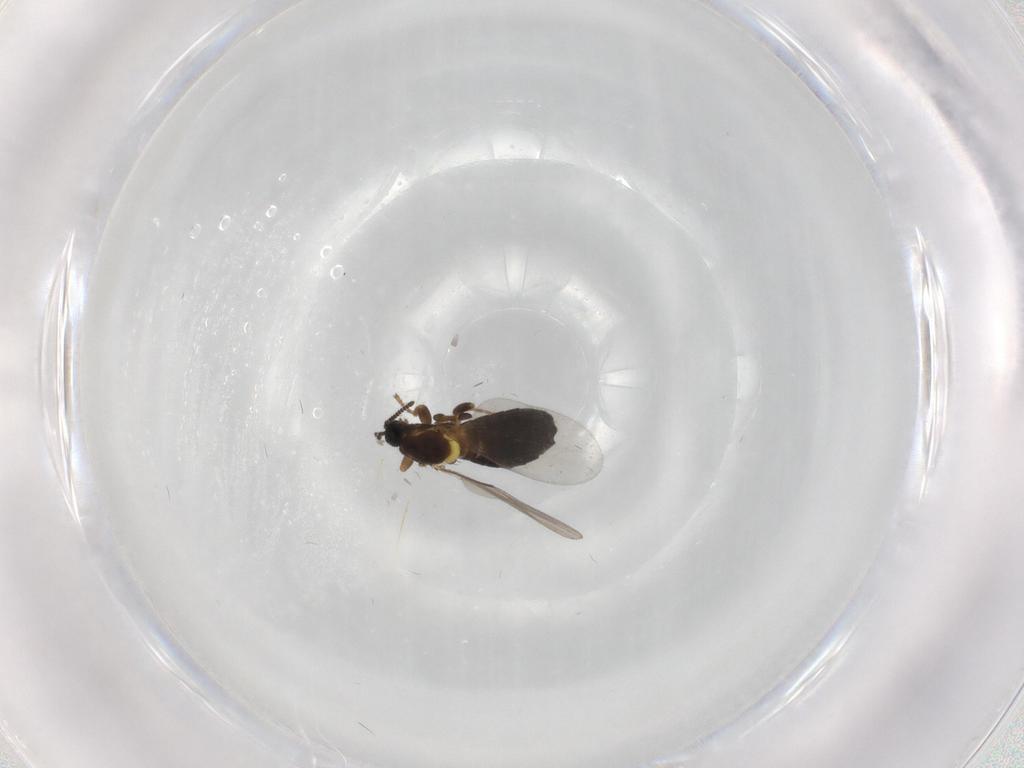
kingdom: Animalia
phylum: Arthropoda
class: Insecta
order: Diptera
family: Scatopsidae
